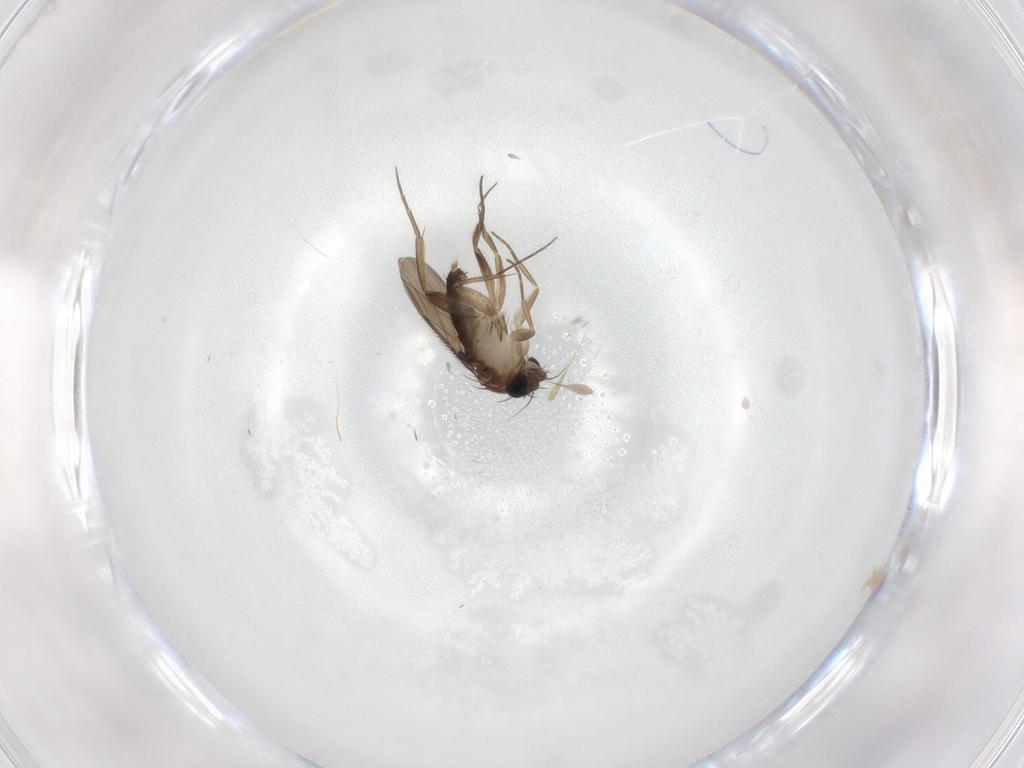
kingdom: Animalia
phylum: Arthropoda
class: Insecta
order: Diptera
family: Phoridae
